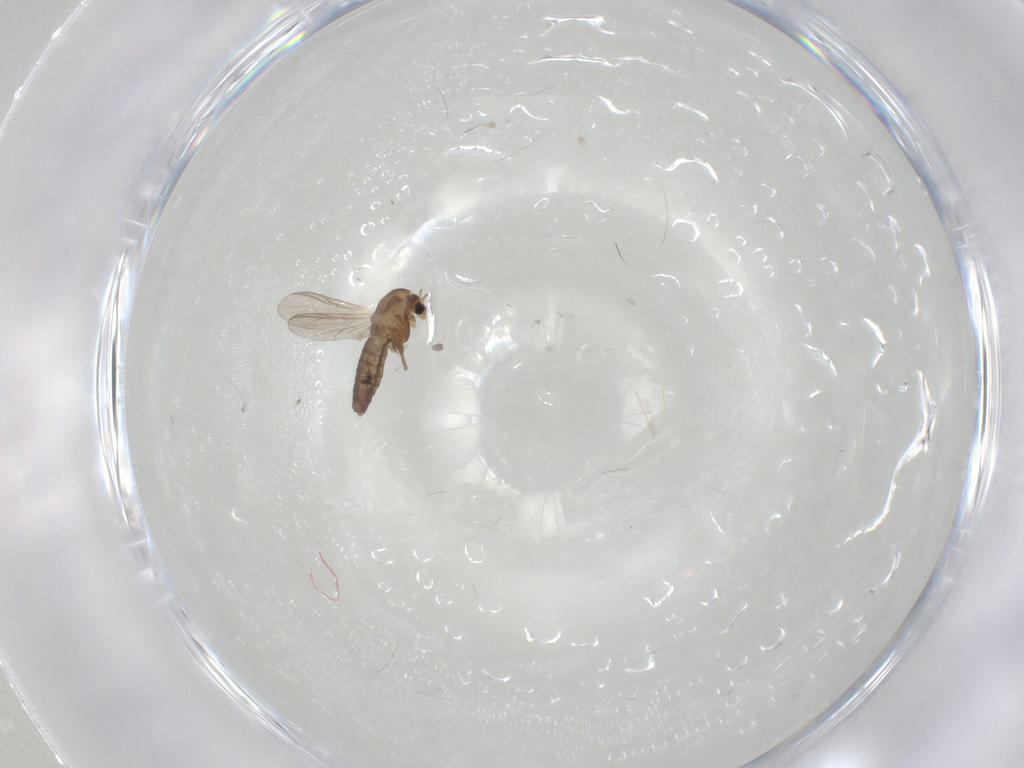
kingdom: Animalia
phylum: Arthropoda
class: Insecta
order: Diptera
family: Chironomidae
